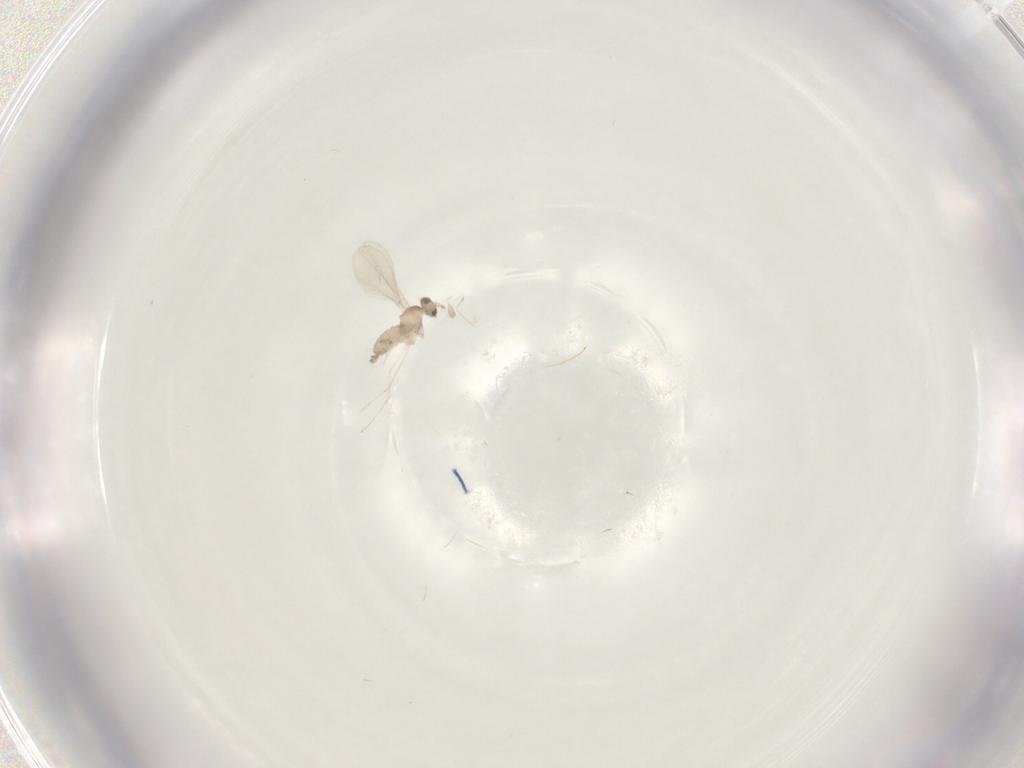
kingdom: Animalia
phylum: Arthropoda
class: Insecta
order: Diptera
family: Cecidomyiidae
